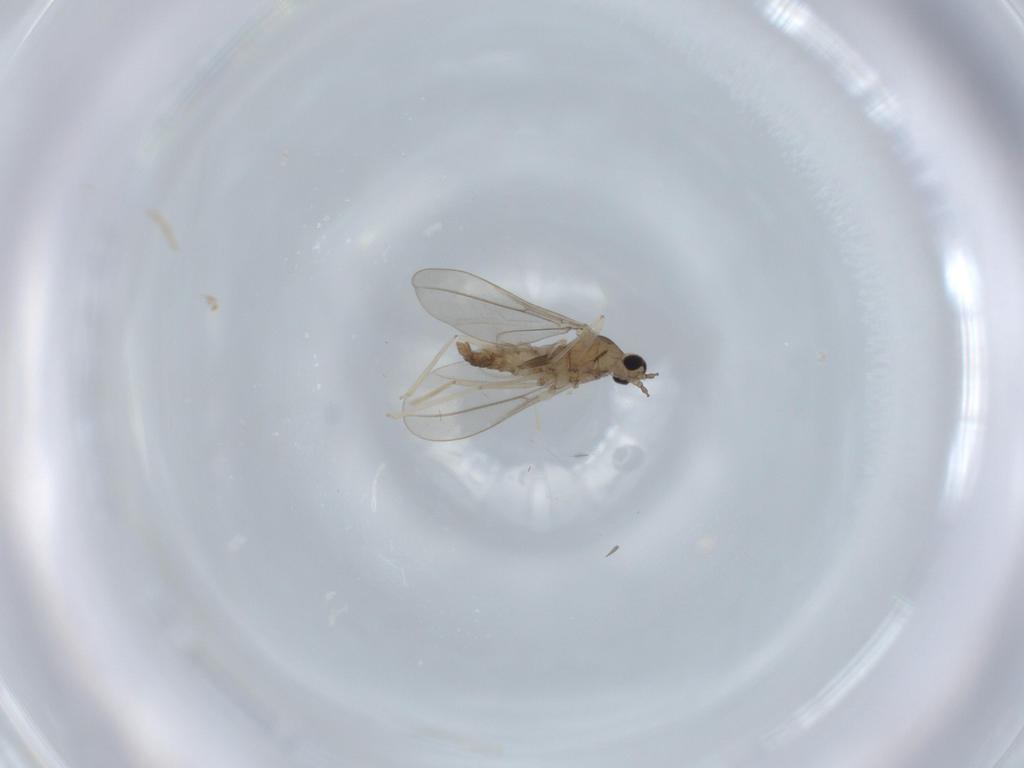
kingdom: Animalia
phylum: Arthropoda
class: Insecta
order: Diptera
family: Cecidomyiidae
